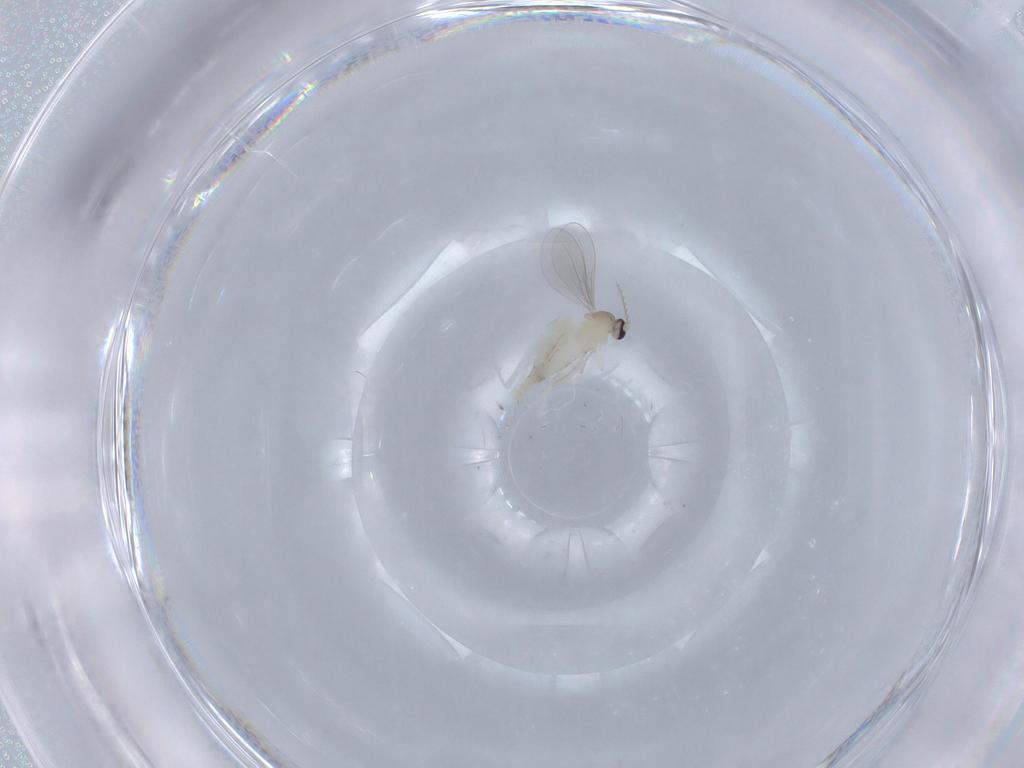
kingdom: Animalia
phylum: Arthropoda
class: Insecta
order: Diptera
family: Cecidomyiidae
